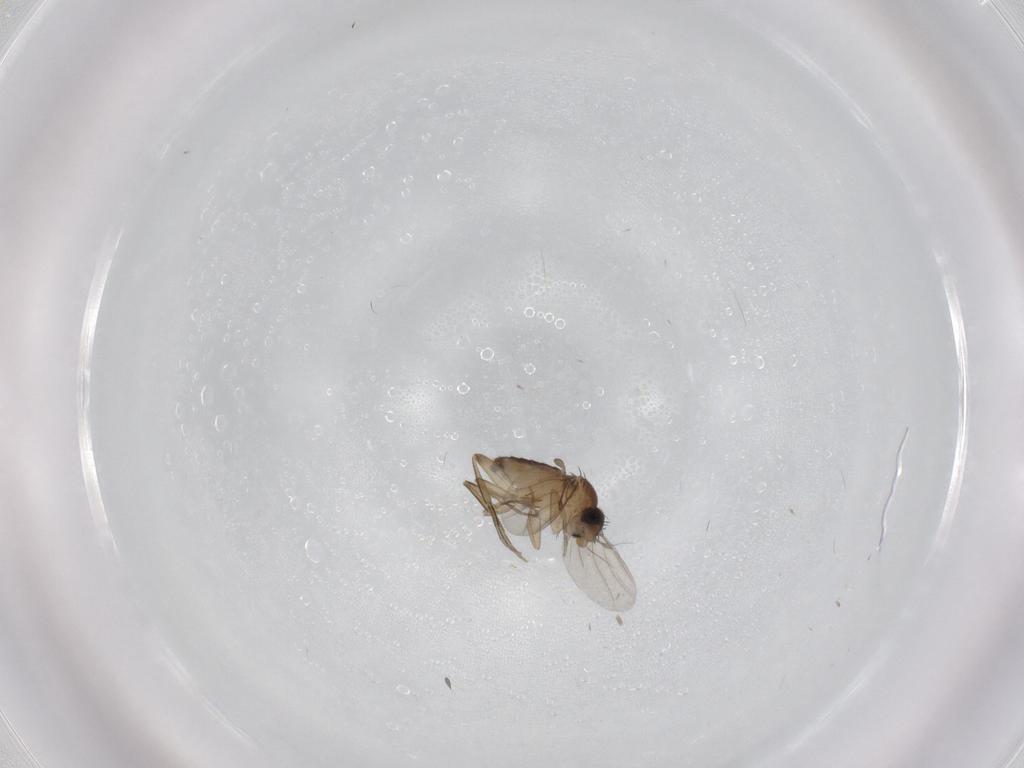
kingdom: Animalia
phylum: Arthropoda
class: Insecta
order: Diptera
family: Phoridae
